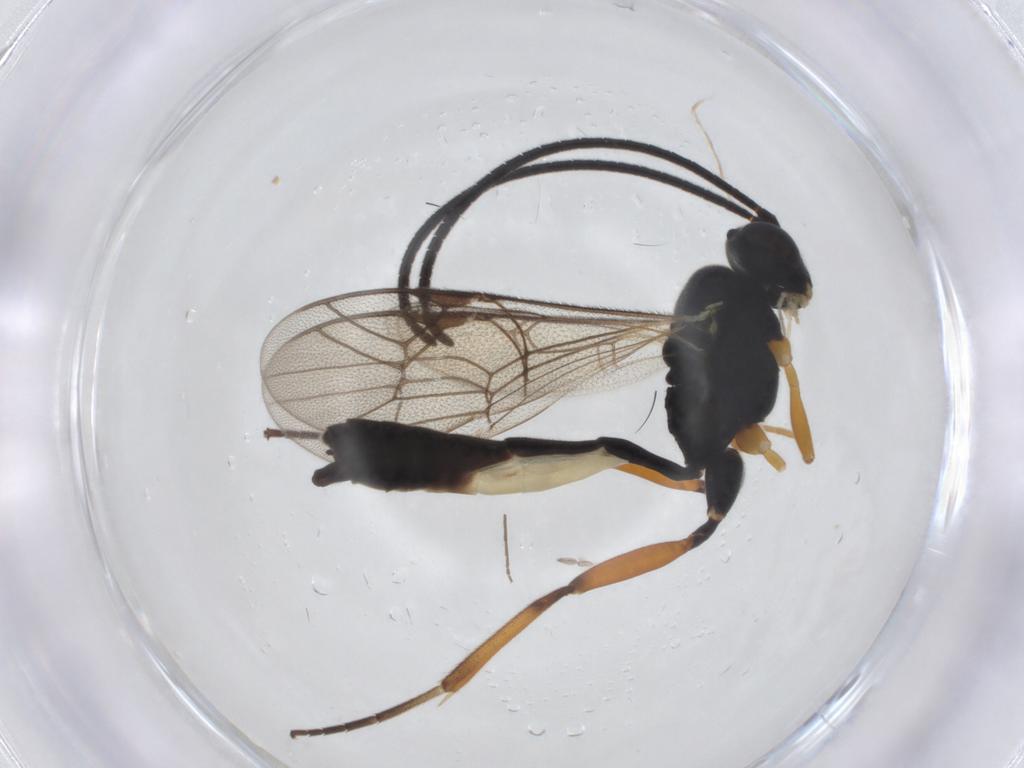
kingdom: Animalia
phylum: Arthropoda
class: Insecta
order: Hymenoptera
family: Ichneumonidae
